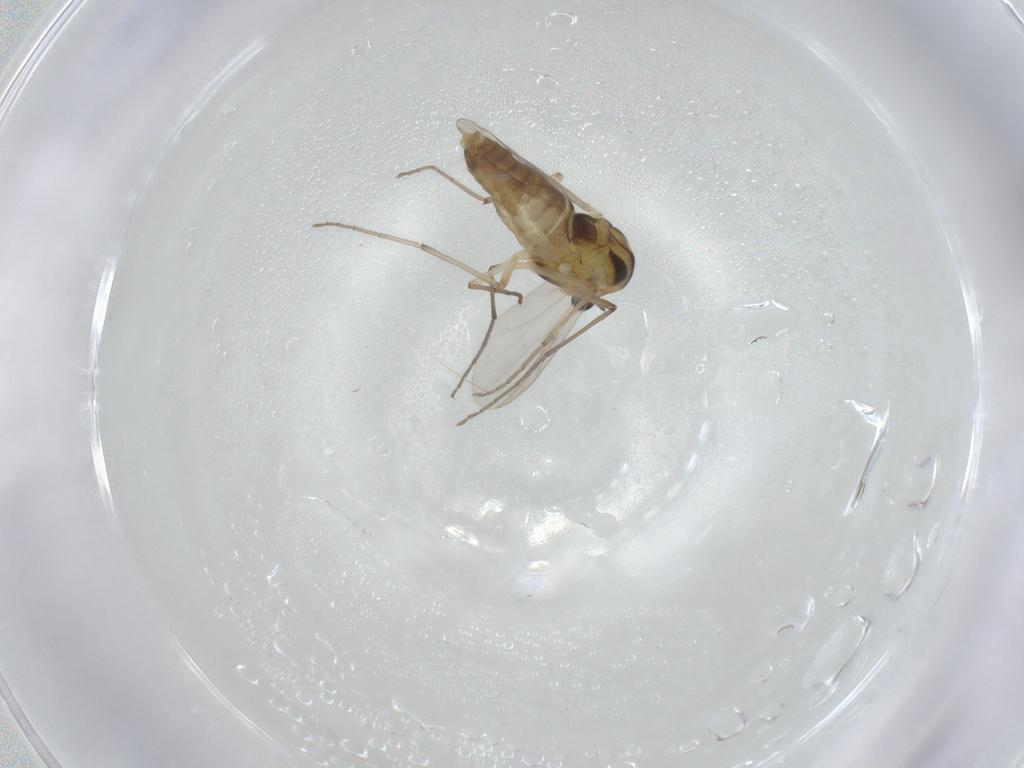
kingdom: Animalia
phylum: Arthropoda
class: Insecta
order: Diptera
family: Chironomidae
